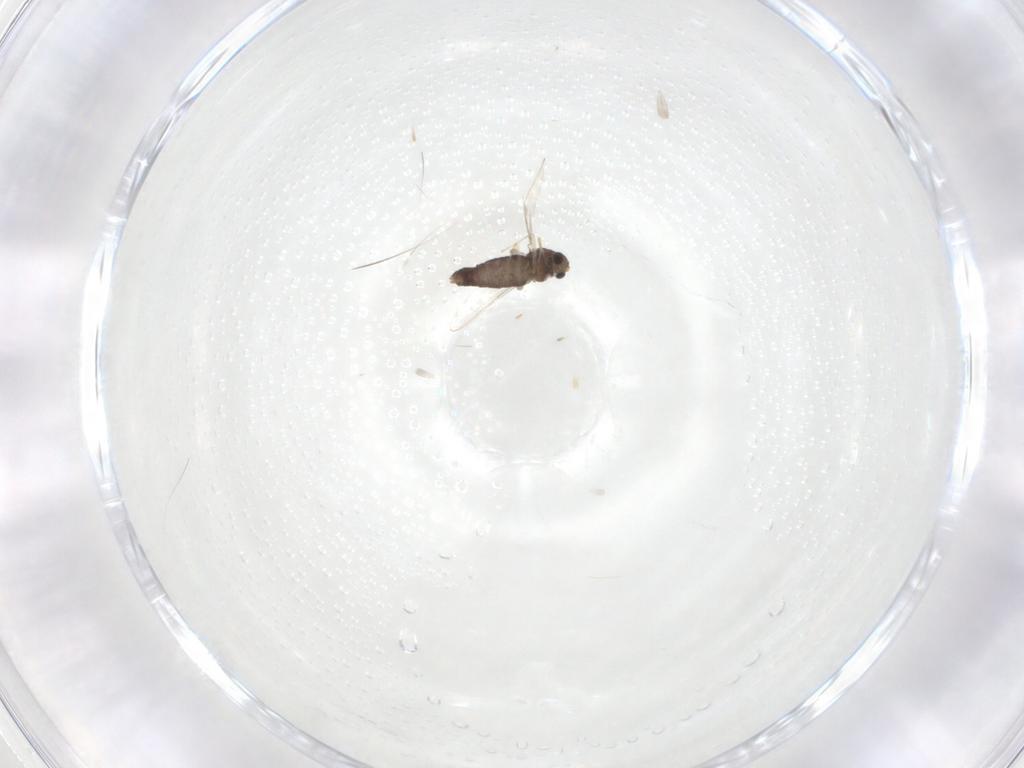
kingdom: Animalia
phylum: Arthropoda
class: Insecta
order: Diptera
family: Chironomidae
